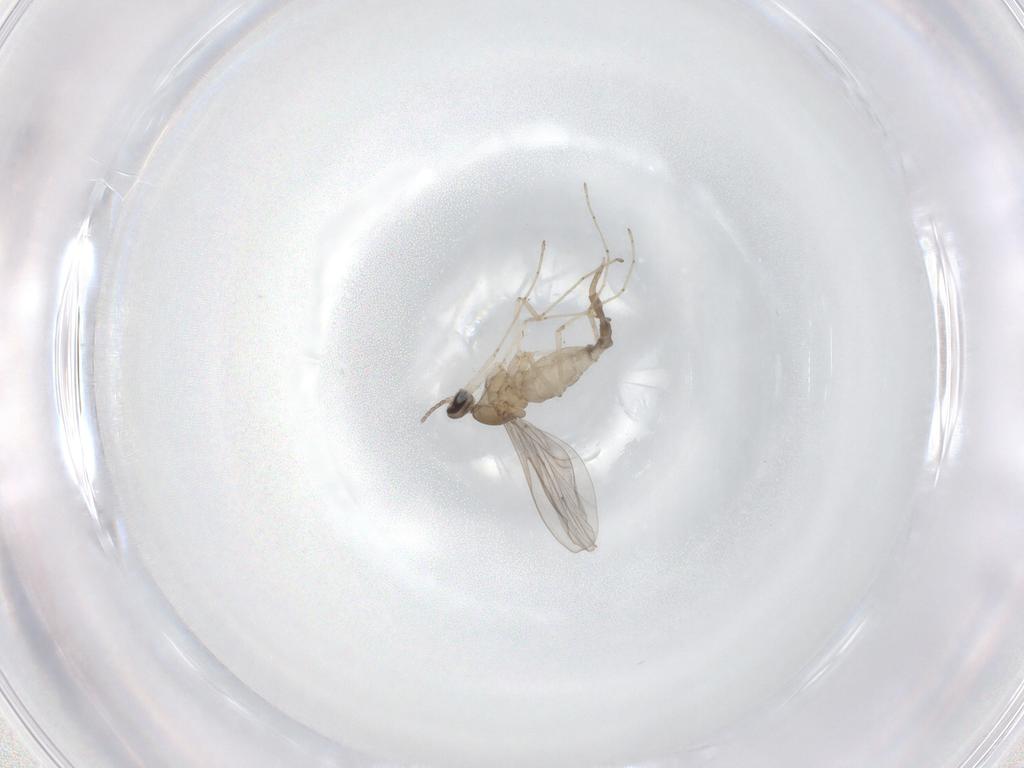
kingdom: Animalia
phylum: Arthropoda
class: Insecta
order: Diptera
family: Cecidomyiidae
